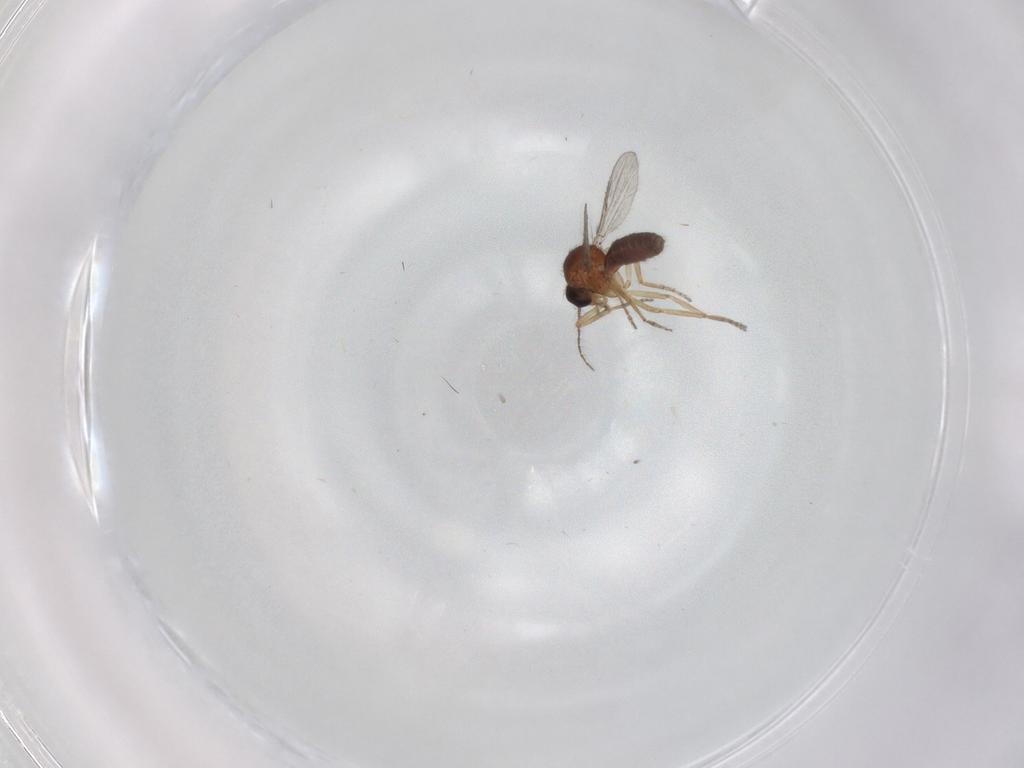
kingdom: Animalia
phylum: Arthropoda
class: Insecta
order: Diptera
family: Ceratopogonidae
